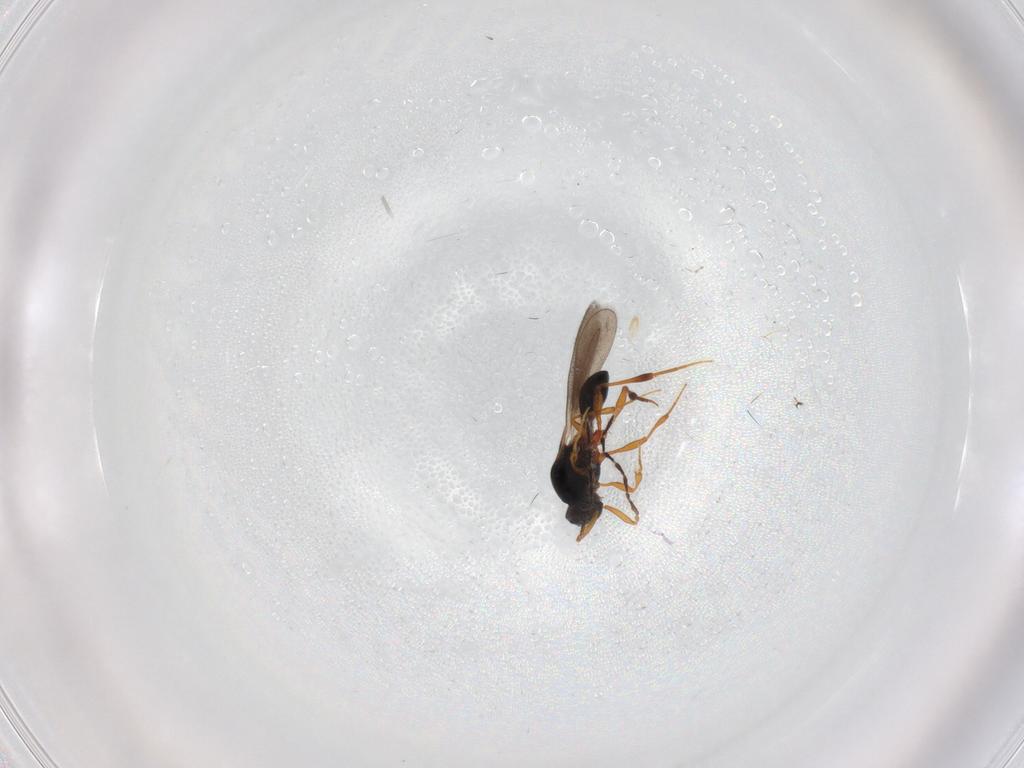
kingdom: Animalia
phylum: Arthropoda
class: Insecta
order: Hymenoptera
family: Platygastridae
